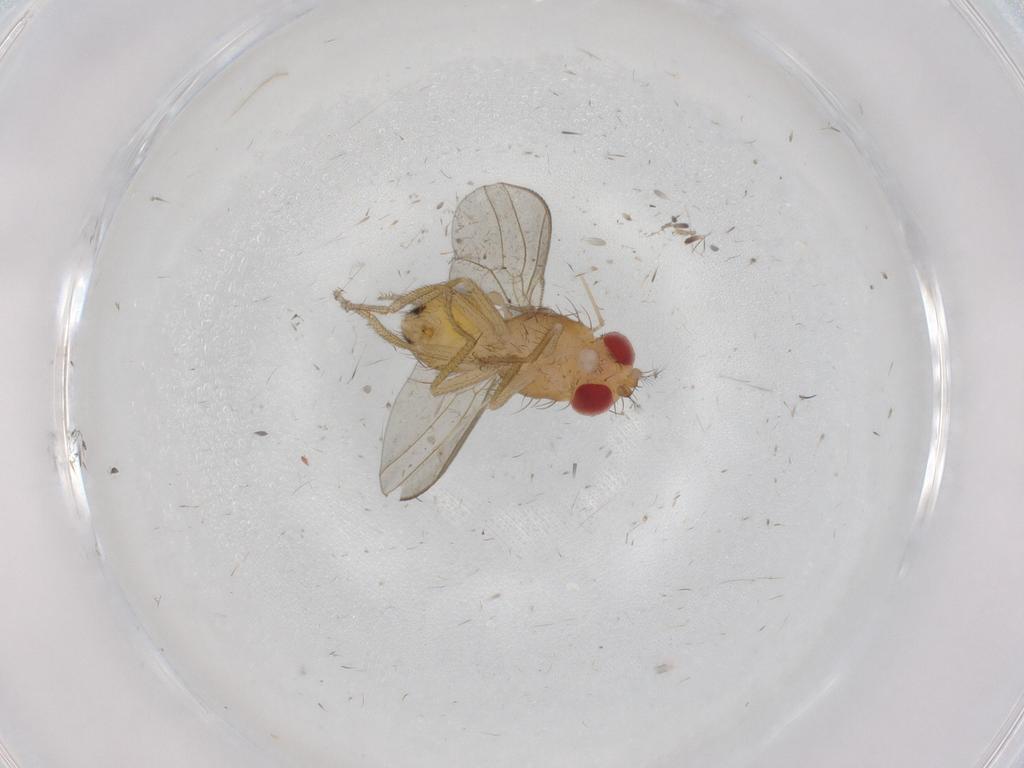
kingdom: Animalia
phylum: Arthropoda
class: Insecta
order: Diptera
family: Drosophilidae
